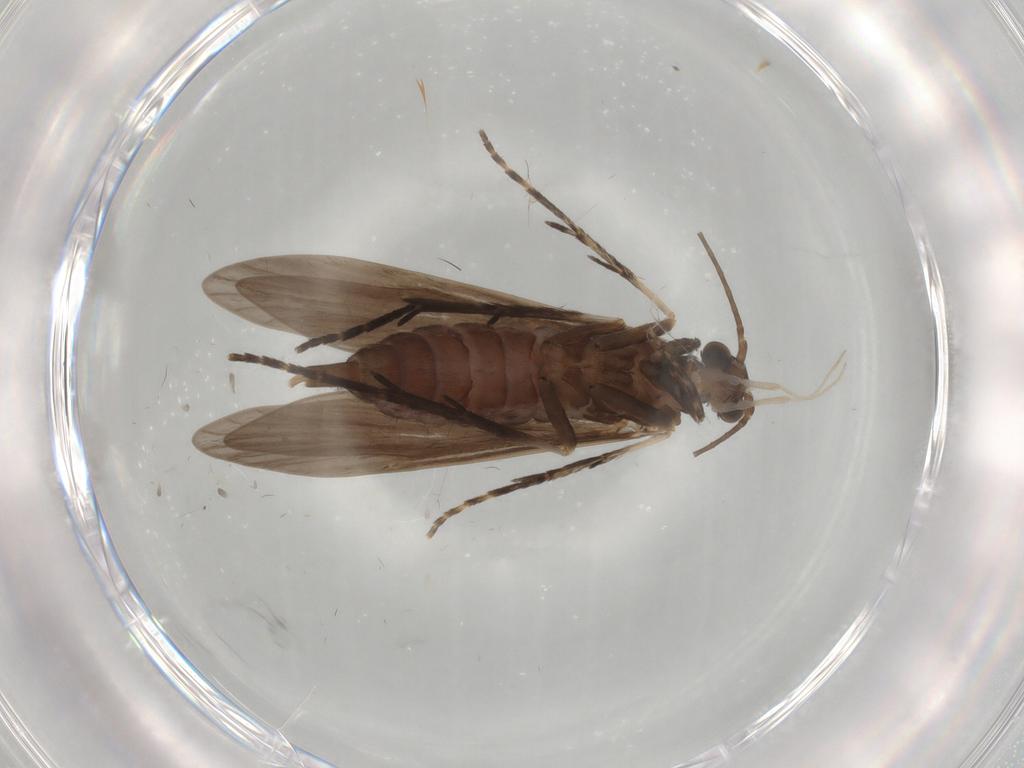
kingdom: Animalia
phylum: Arthropoda
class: Insecta
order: Trichoptera
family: Xiphocentronidae
